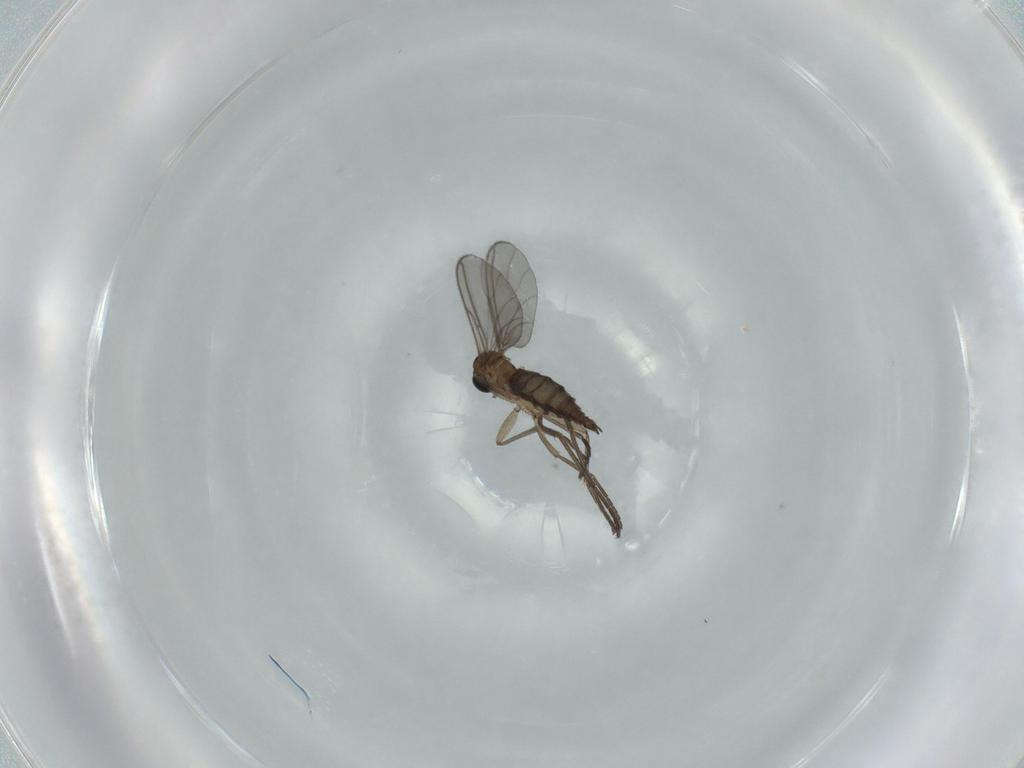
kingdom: Animalia
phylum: Arthropoda
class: Insecta
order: Diptera
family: Sciaridae
